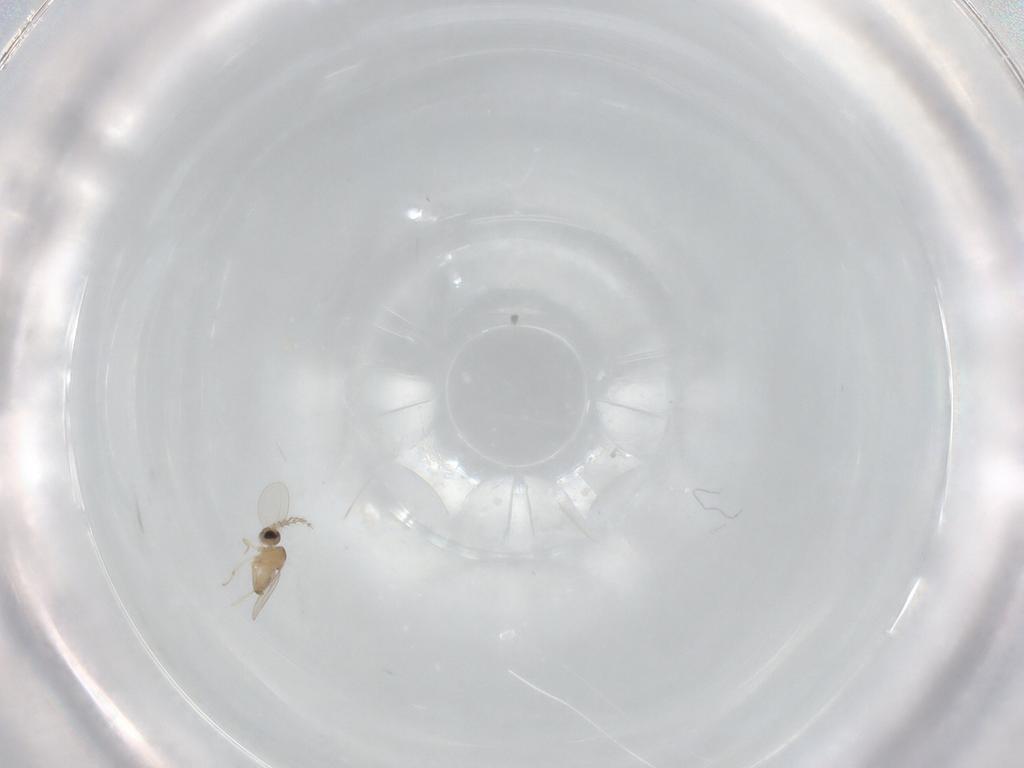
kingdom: Animalia
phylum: Arthropoda
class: Insecta
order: Diptera
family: Cecidomyiidae
